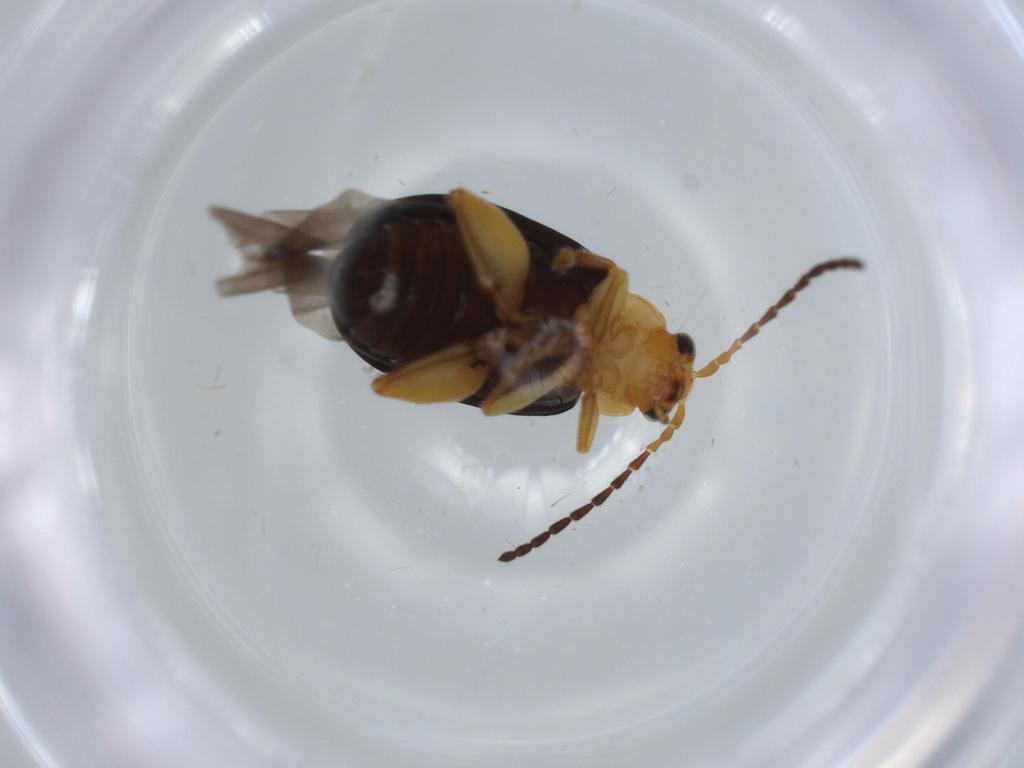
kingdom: Animalia
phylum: Arthropoda
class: Insecta
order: Coleoptera
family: Chrysomelidae
